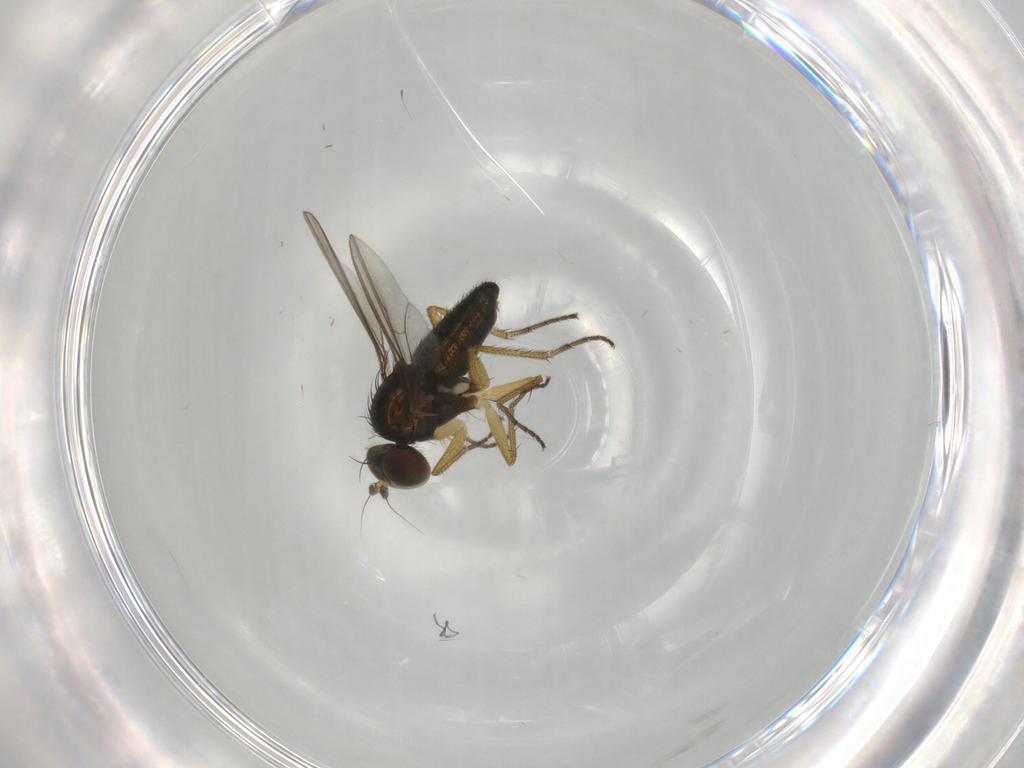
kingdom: Animalia
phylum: Arthropoda
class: Insecta
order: Diptera
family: Dolichopodidae
